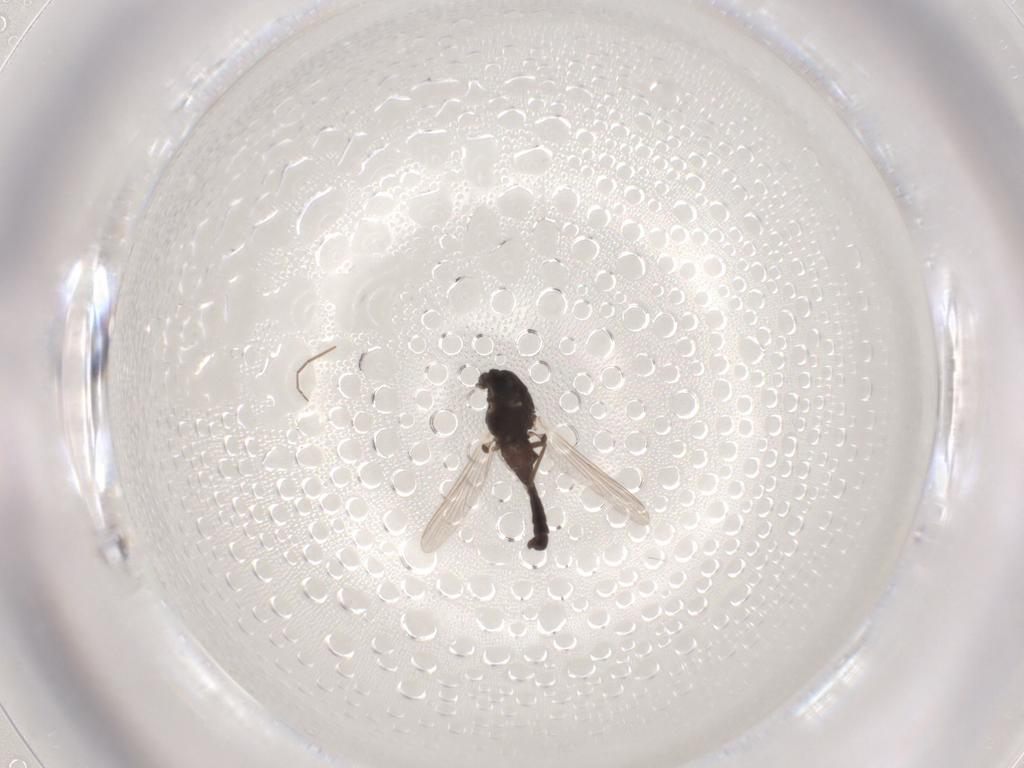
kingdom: Animalia
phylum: Arthropoda
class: Insecta
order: Diptera
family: Chironomidae
